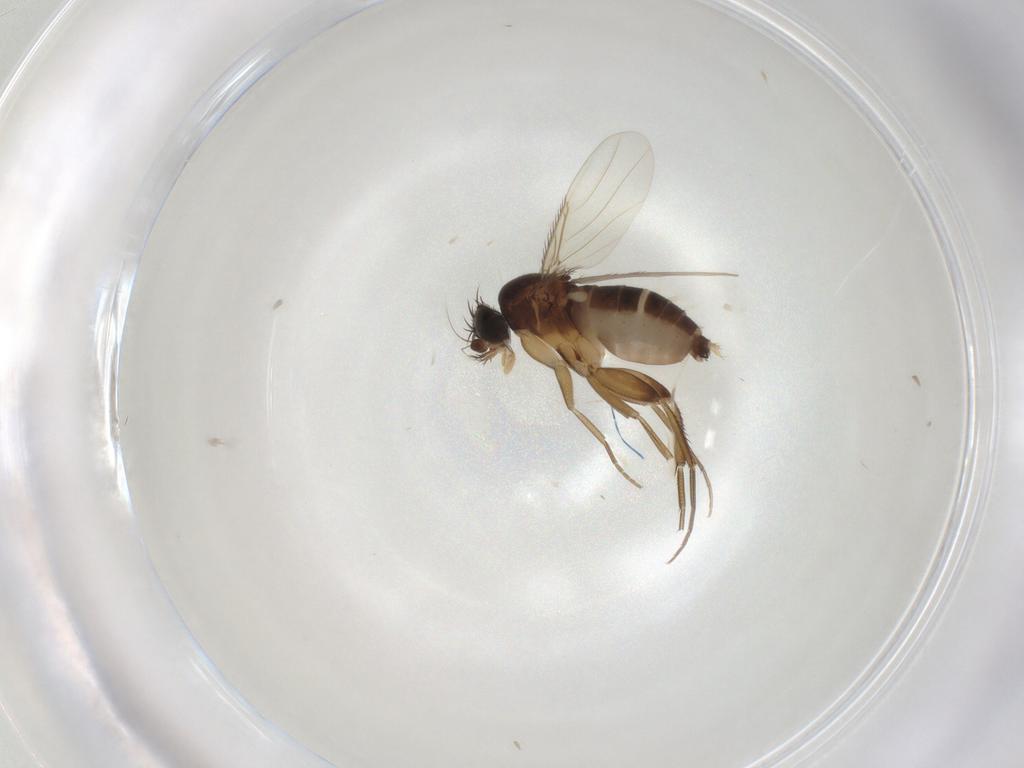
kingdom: Animalia
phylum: Arthropoda
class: Insecta
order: Diptera
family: Phoridae
